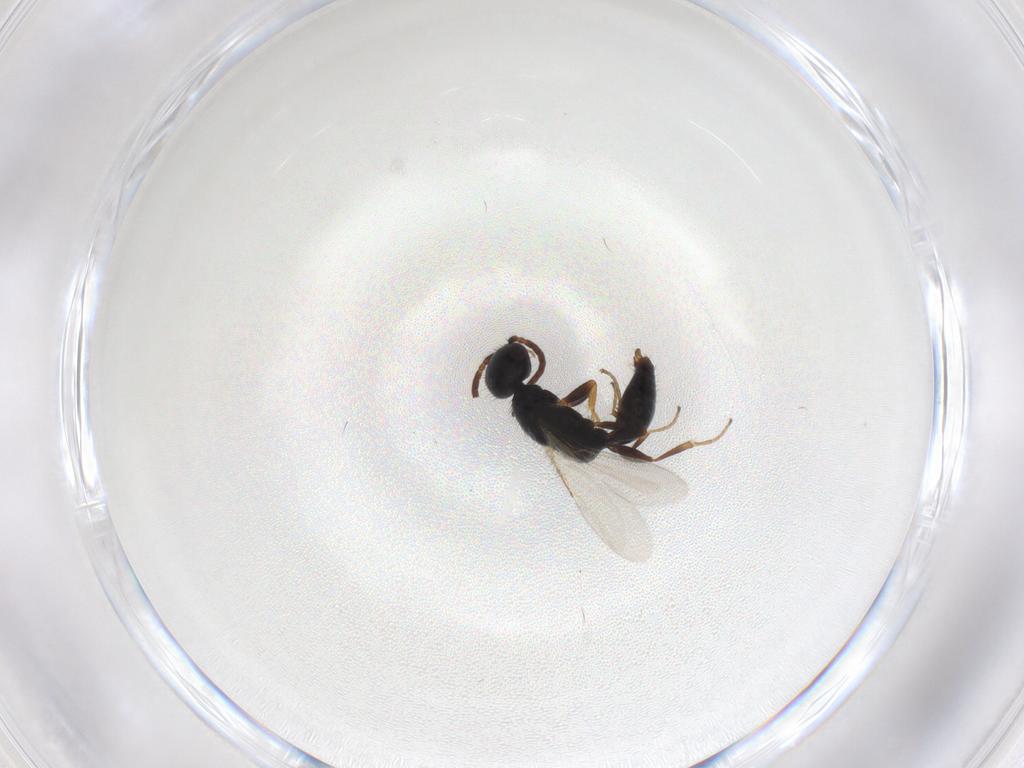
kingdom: Animalia
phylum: Arthropoda
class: Insecta
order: Hymenoptera
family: Bethylidae
